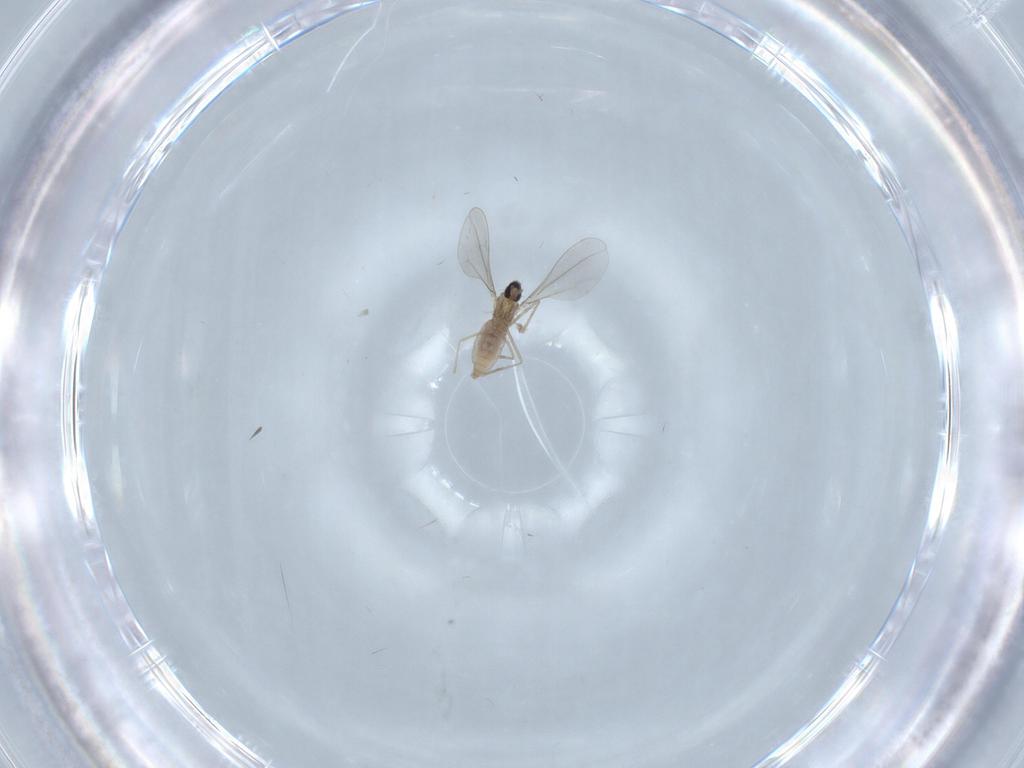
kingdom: Animalia
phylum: Arthropoda
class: Insecta
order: Diptera
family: Cecidomyiidae
